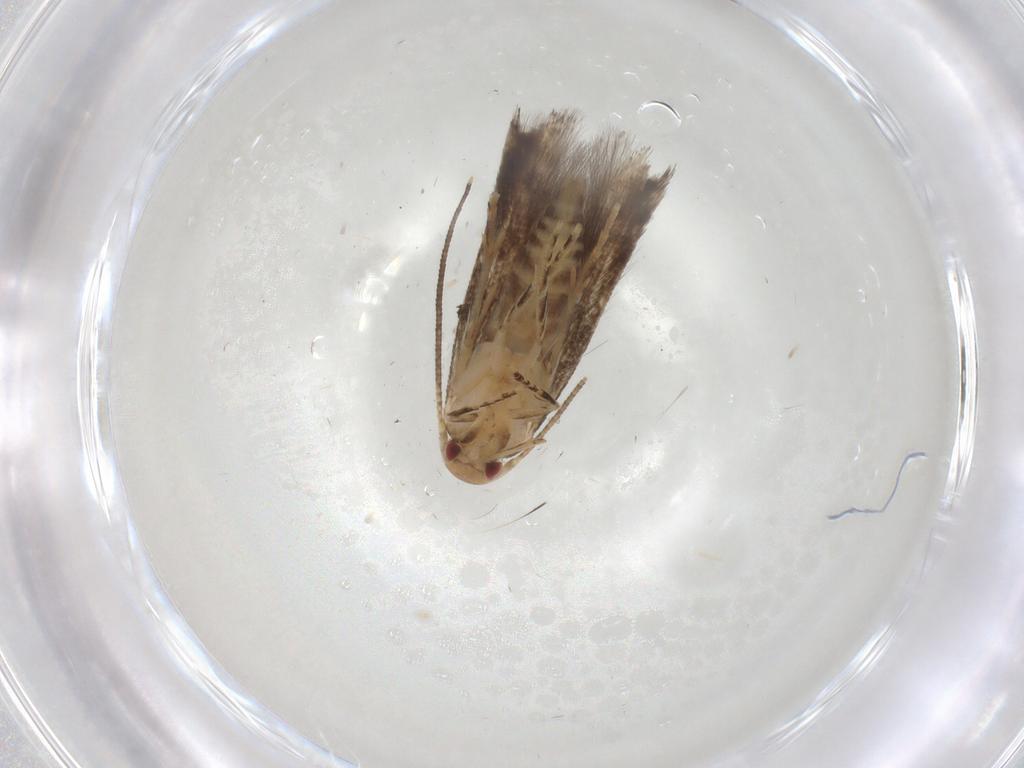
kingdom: Animalia
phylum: Arthropoda
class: Insecta
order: Lepidoptera
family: Momphidae
